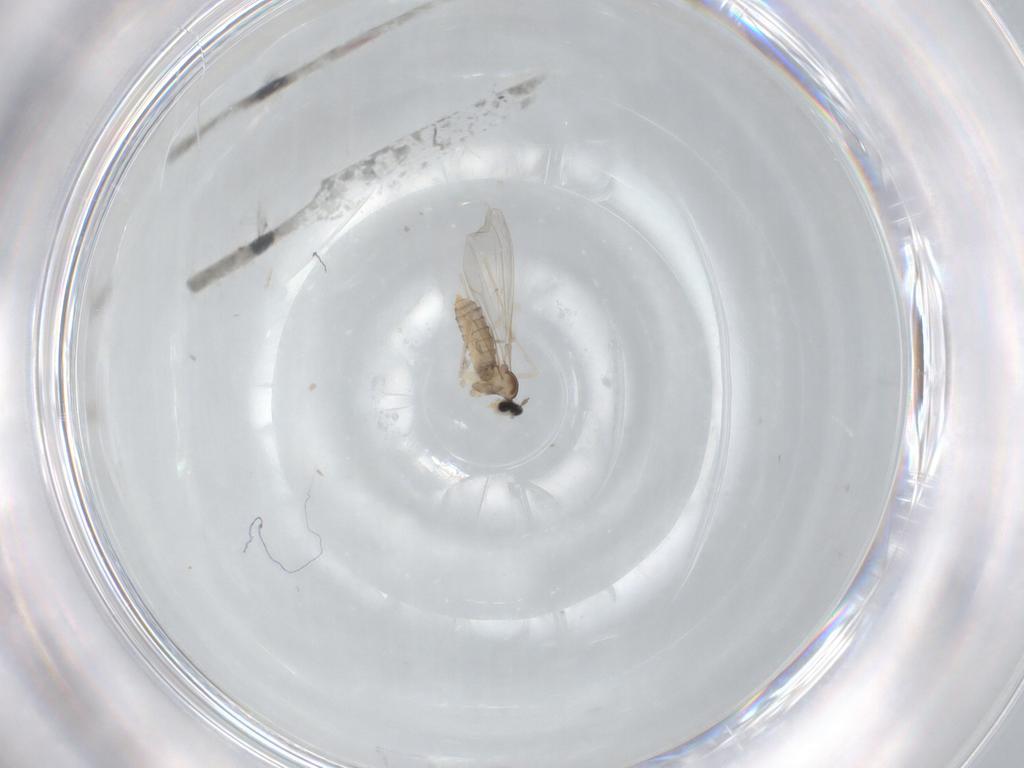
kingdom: Animalia
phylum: Arthropoda
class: Insecta
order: Diptera
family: Cecidomyiidae
